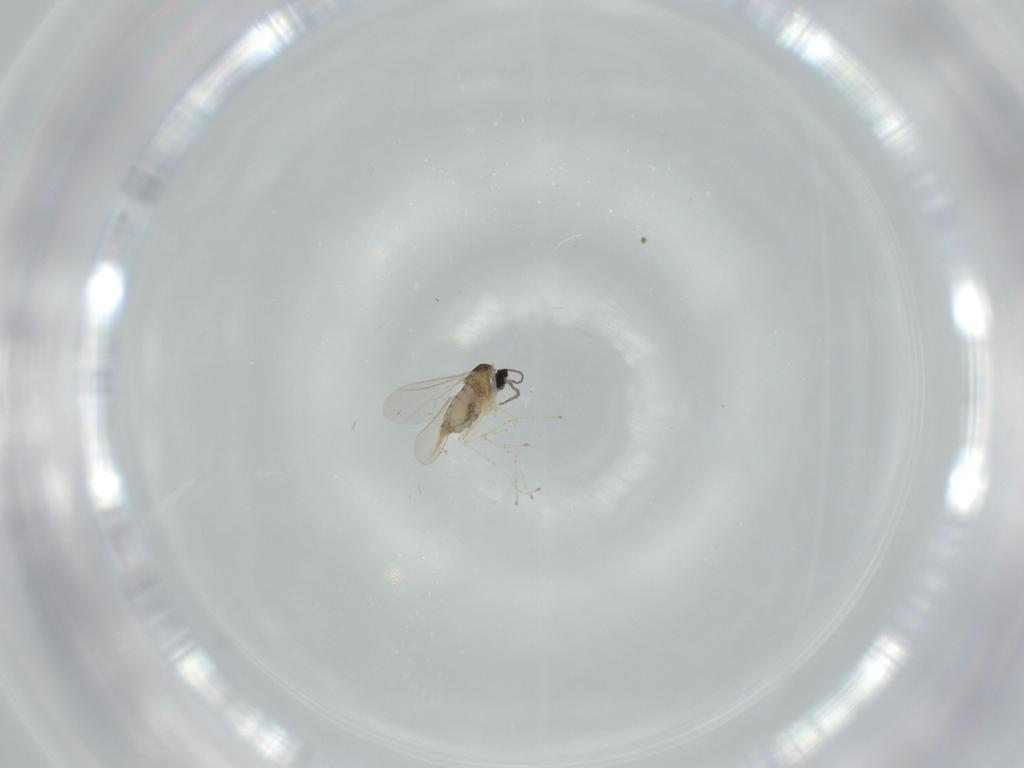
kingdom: Animalia
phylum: Arthropoda
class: Insecta
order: Diptera
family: Cecidomyiidae
